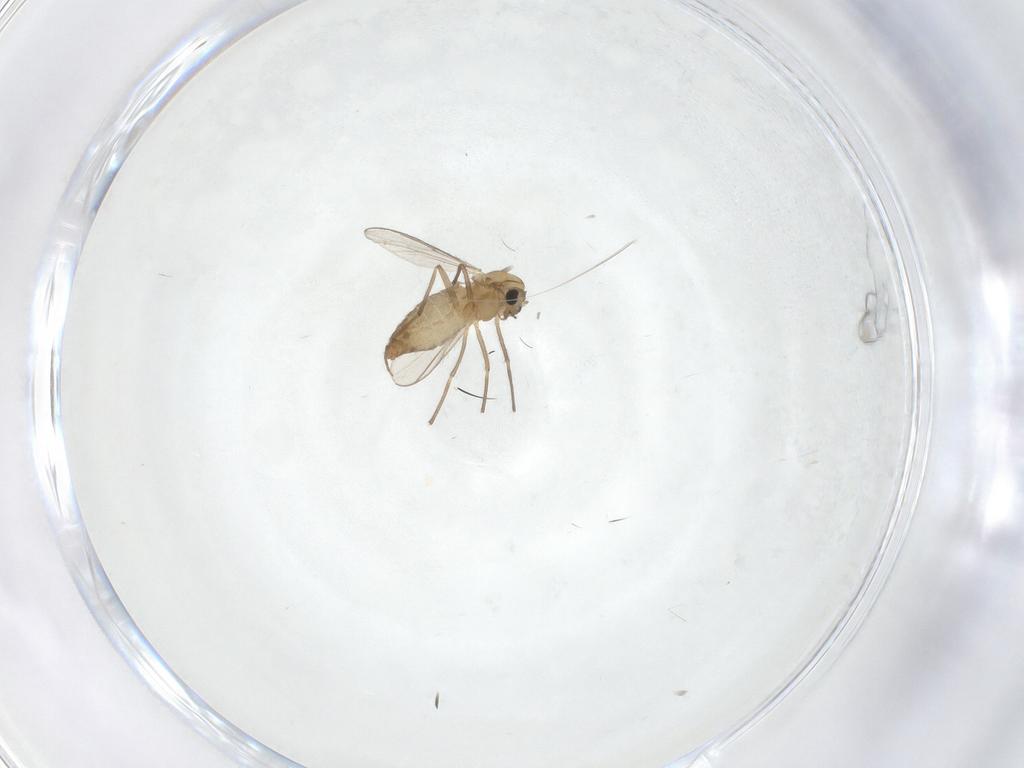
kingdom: Animalia
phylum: Arthropoda
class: Insecta
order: Diptera
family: Chironomidae
